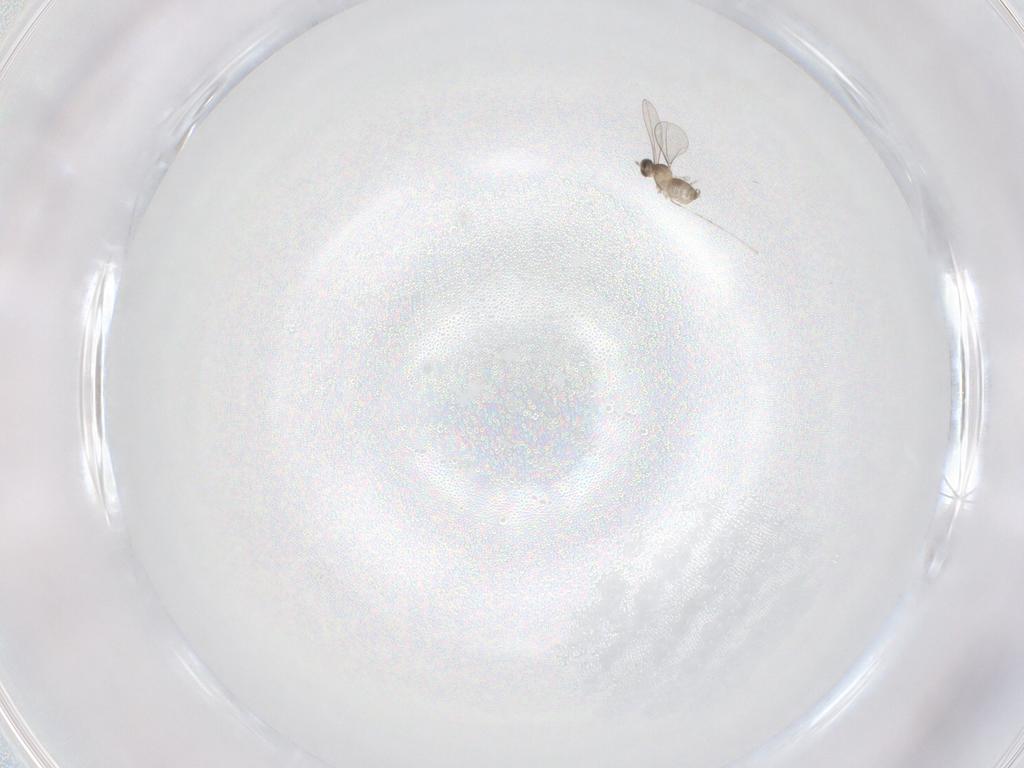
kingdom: Animalia
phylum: Arthropoda
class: Insecta
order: Diptera
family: Cecidomyiidae
